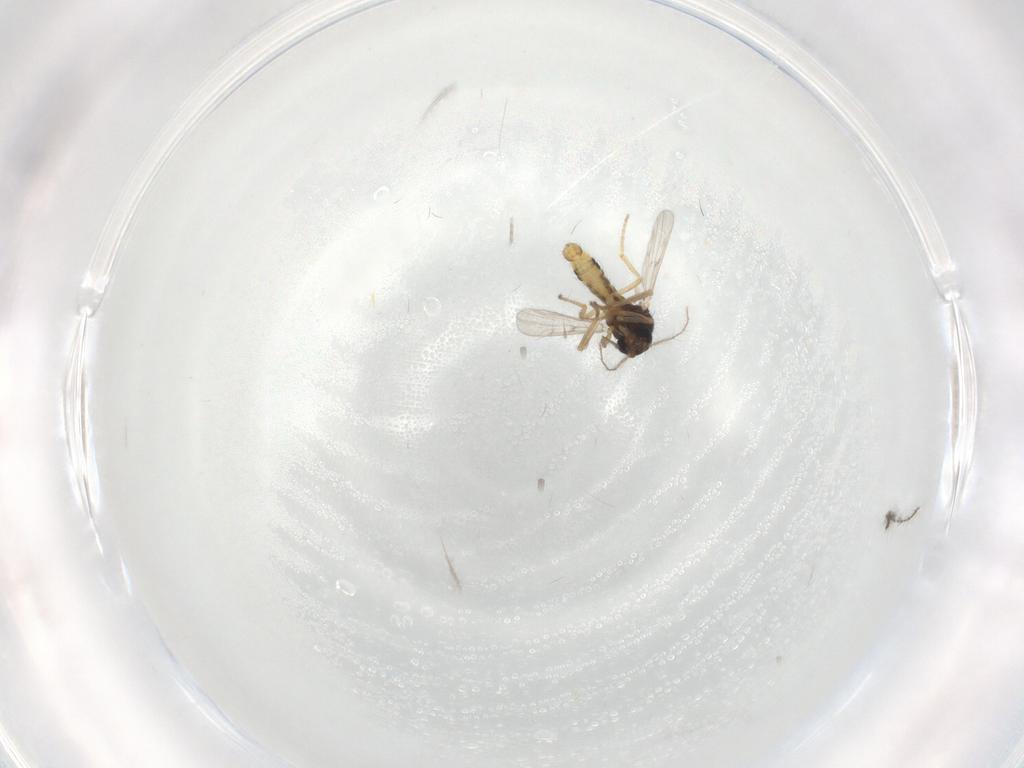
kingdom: Animalia
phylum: Arthropoda
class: Insecta
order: Diptera
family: Ceratopogonidae
